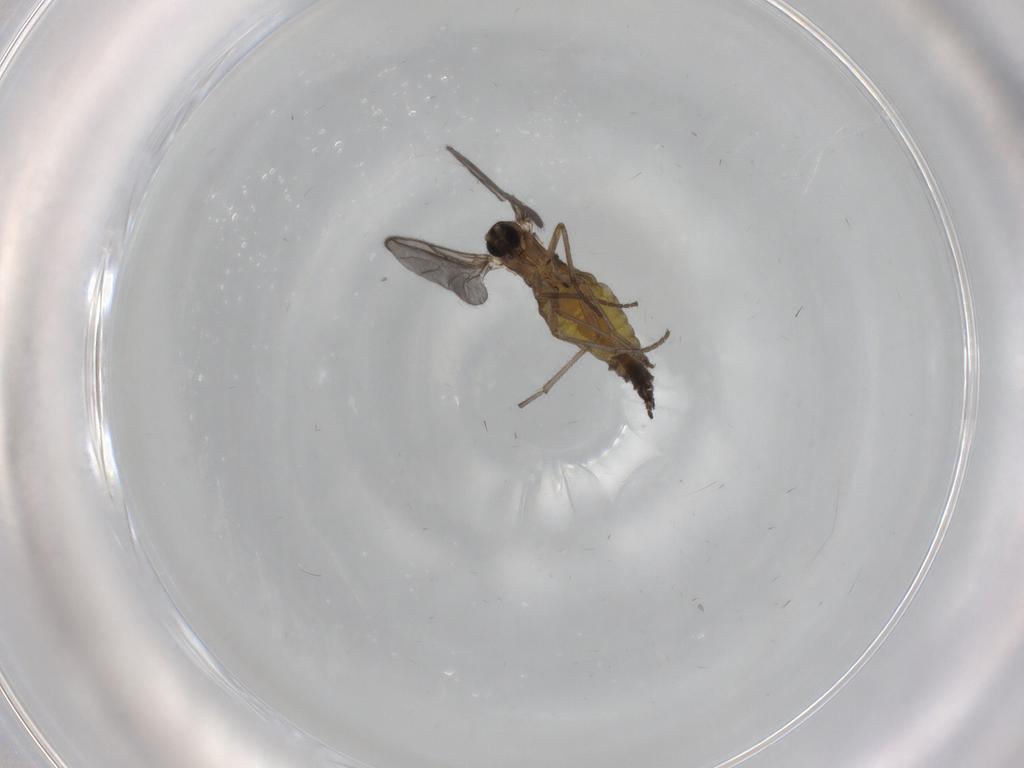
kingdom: Animalia
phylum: Arthropoda
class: Insecta
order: Diptera
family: Sciaridae
